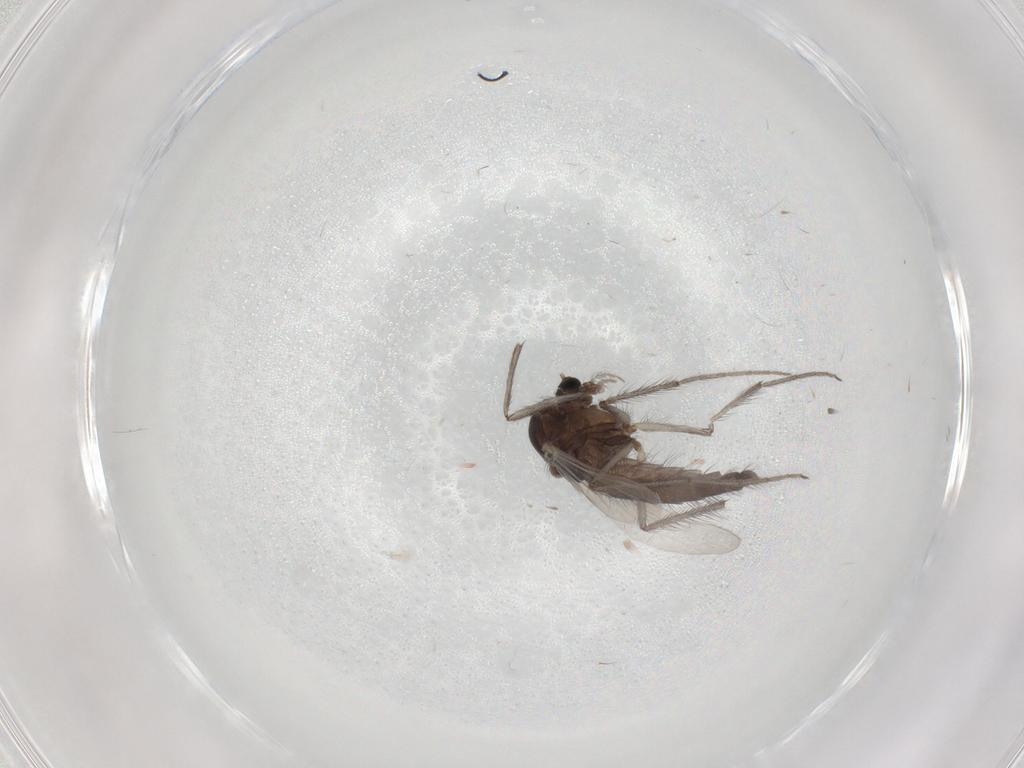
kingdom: Animalia
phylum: Arthropoda
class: Insecta
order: Diptera
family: Chironomidae
